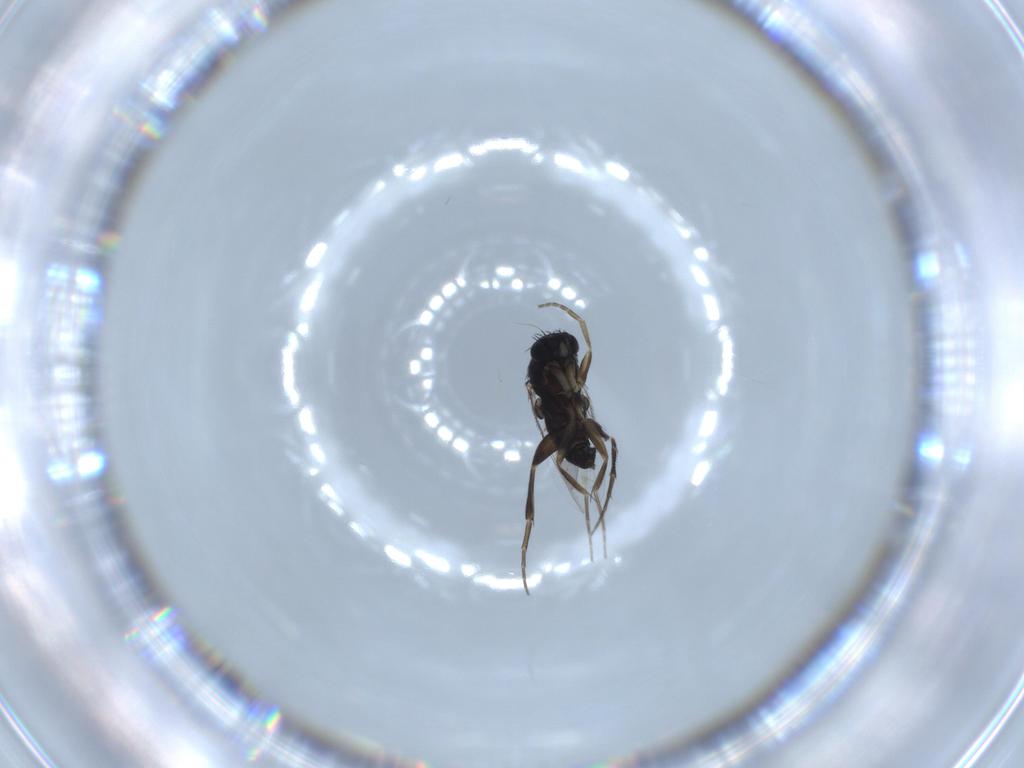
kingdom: Animalia
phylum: Arthropoda
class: Insecta
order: Diptera
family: Phoridae
